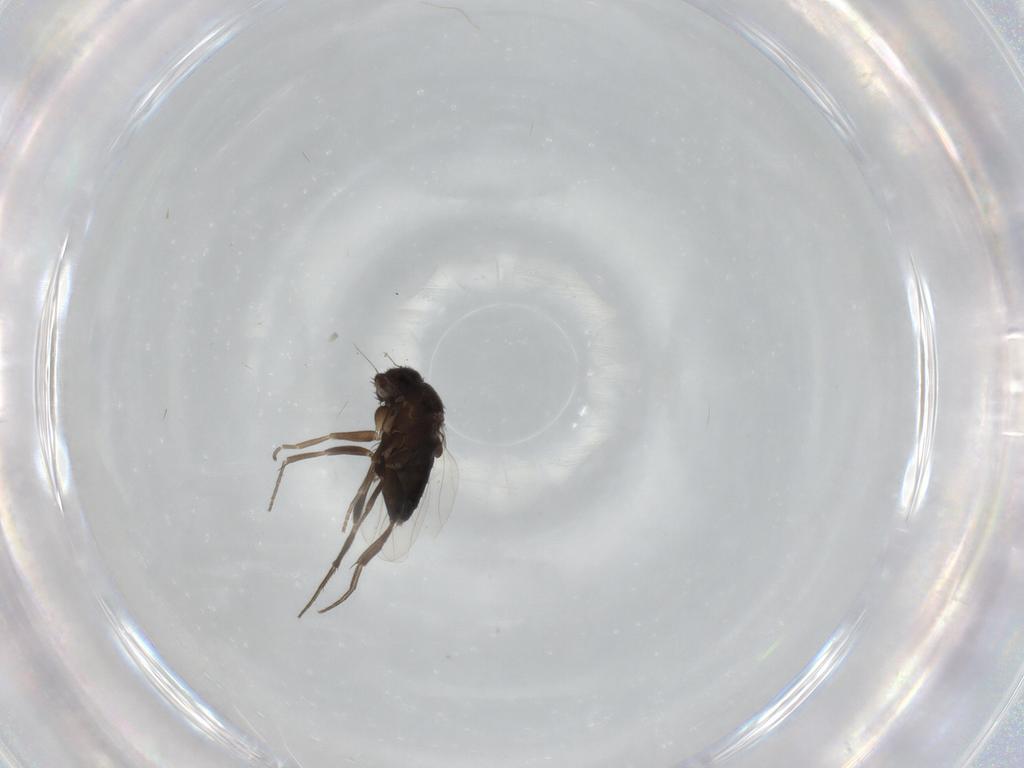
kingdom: Animalia
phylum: Arthropoda
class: Insecta
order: Diptera
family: Phoridae
